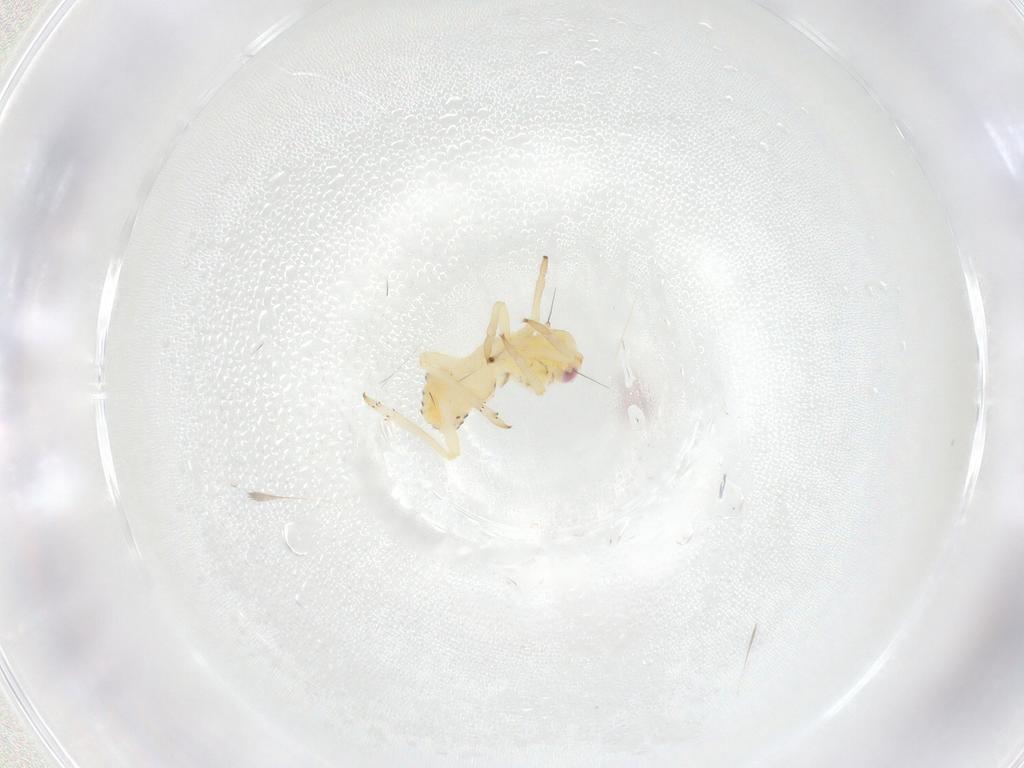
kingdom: Animalia
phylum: Arthropoda
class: Insecta
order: Hemiptera
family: Tropiduchidae
